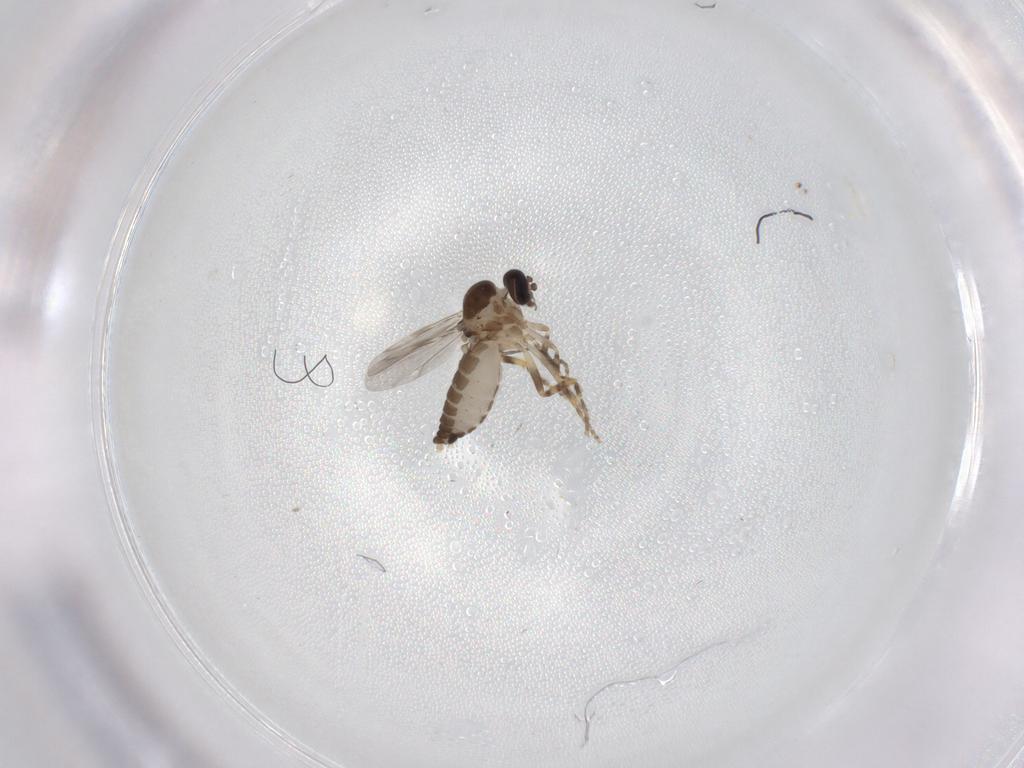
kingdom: Animalia
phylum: Arthropoda
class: Insecta
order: Diptera
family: Ceratopogonidae
